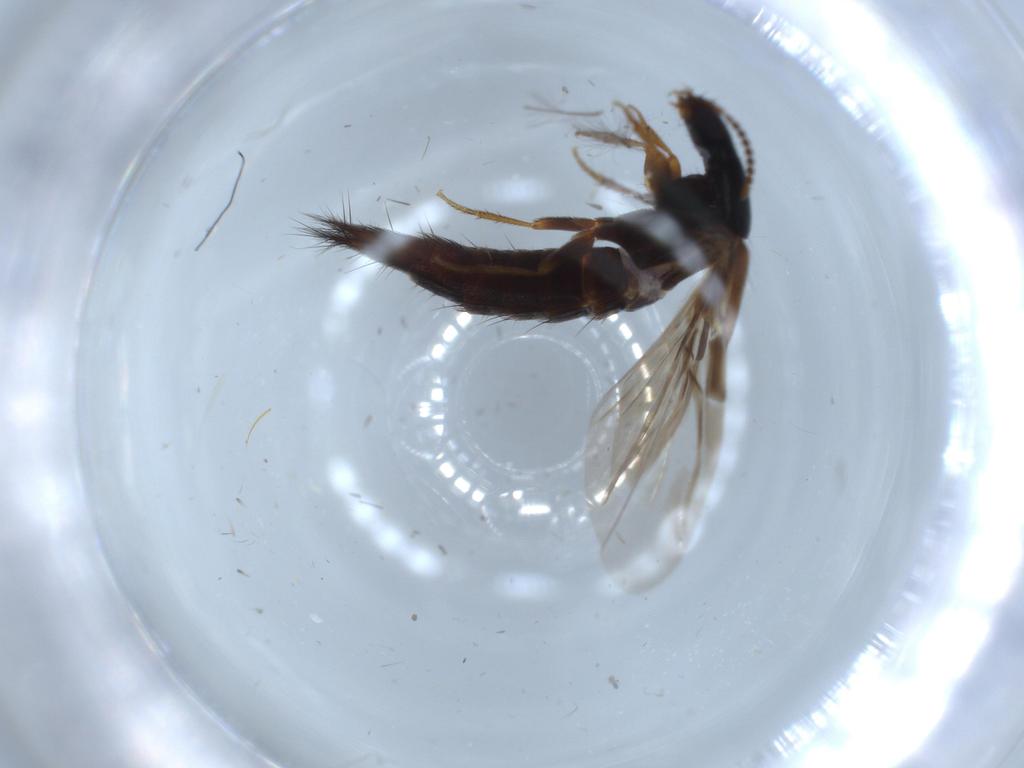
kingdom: Animalia
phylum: Arthropoda
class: Insecta
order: Coleoptera
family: Staphylinidae
